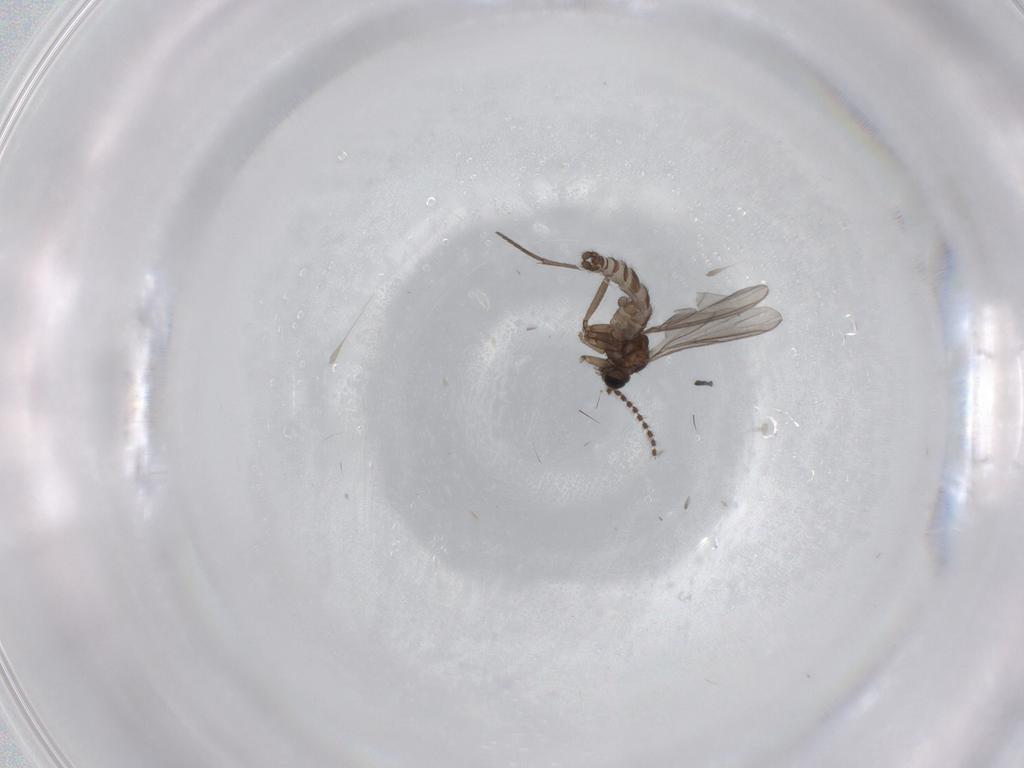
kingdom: Animalia
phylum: Arthropoda
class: Insecta
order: Diptera
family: Sciaridae
